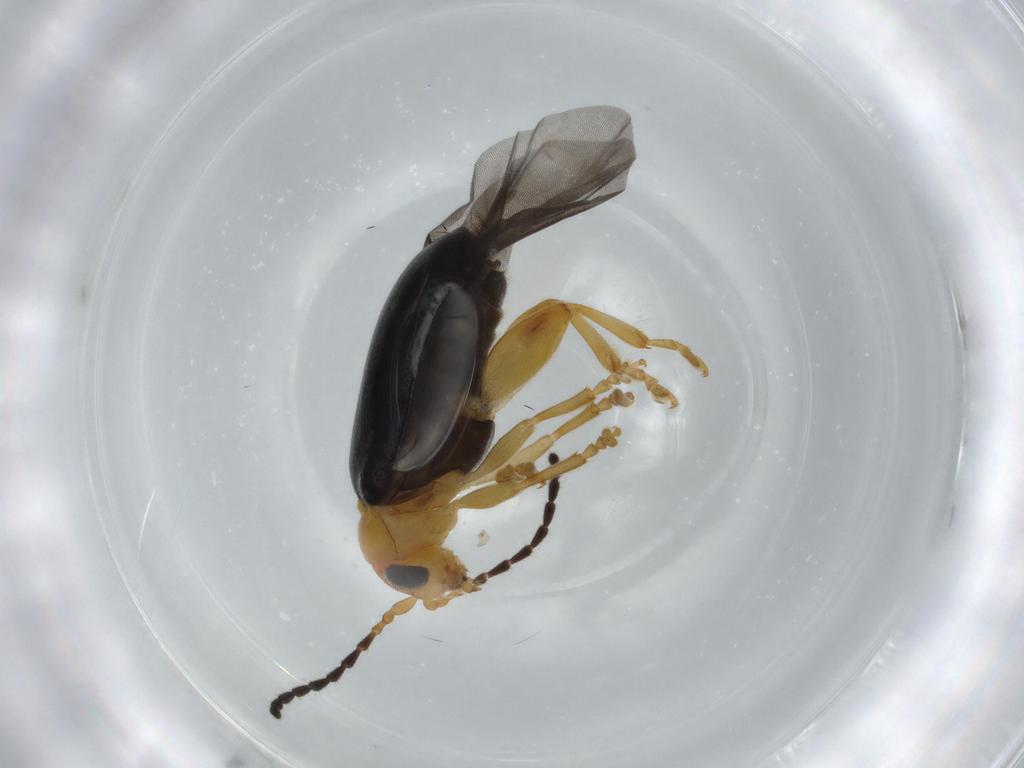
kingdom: Animalia
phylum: Arthropoda
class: Insecta
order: Coleoptera
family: Chrysomelidae
